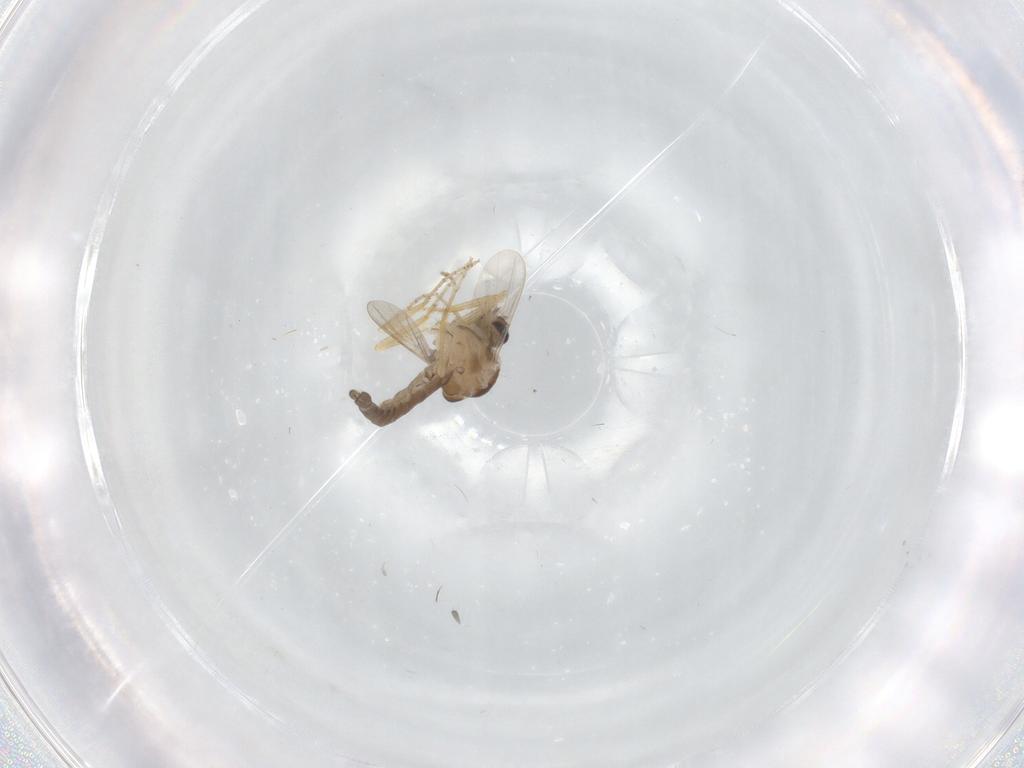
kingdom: Animalia
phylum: Arthropoda
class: Insecta
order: Diptera
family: Ceratopogonidae
